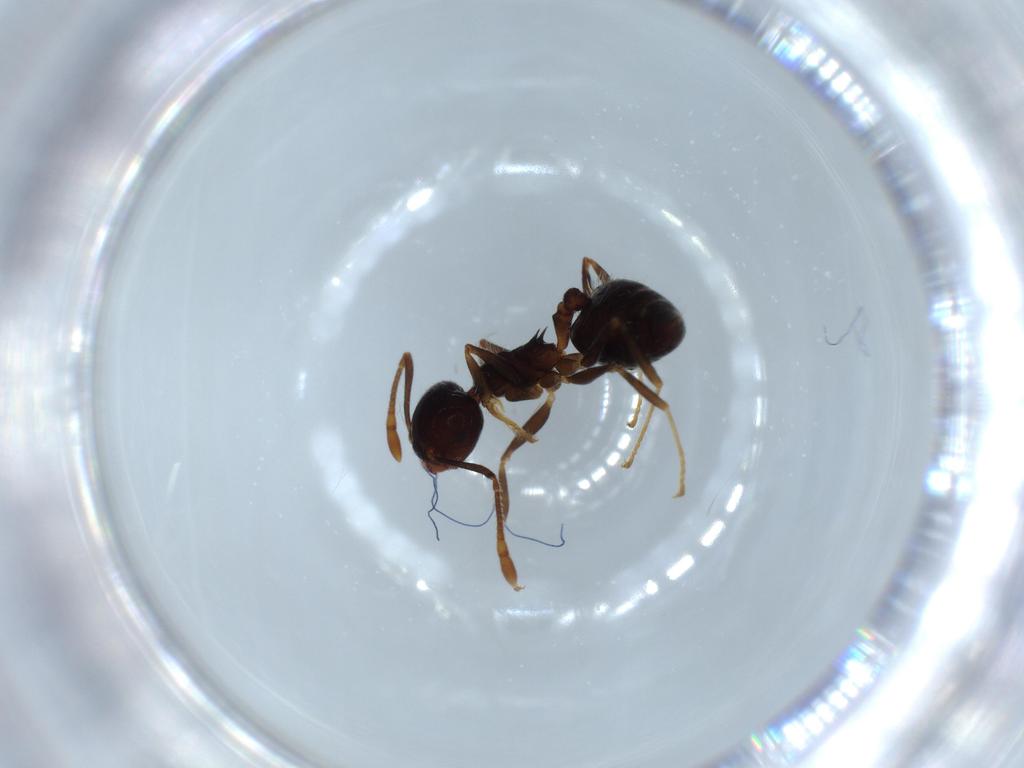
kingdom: Animalia
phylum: Arthropoda
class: Insecta
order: Hymenoptera
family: Formicidae
